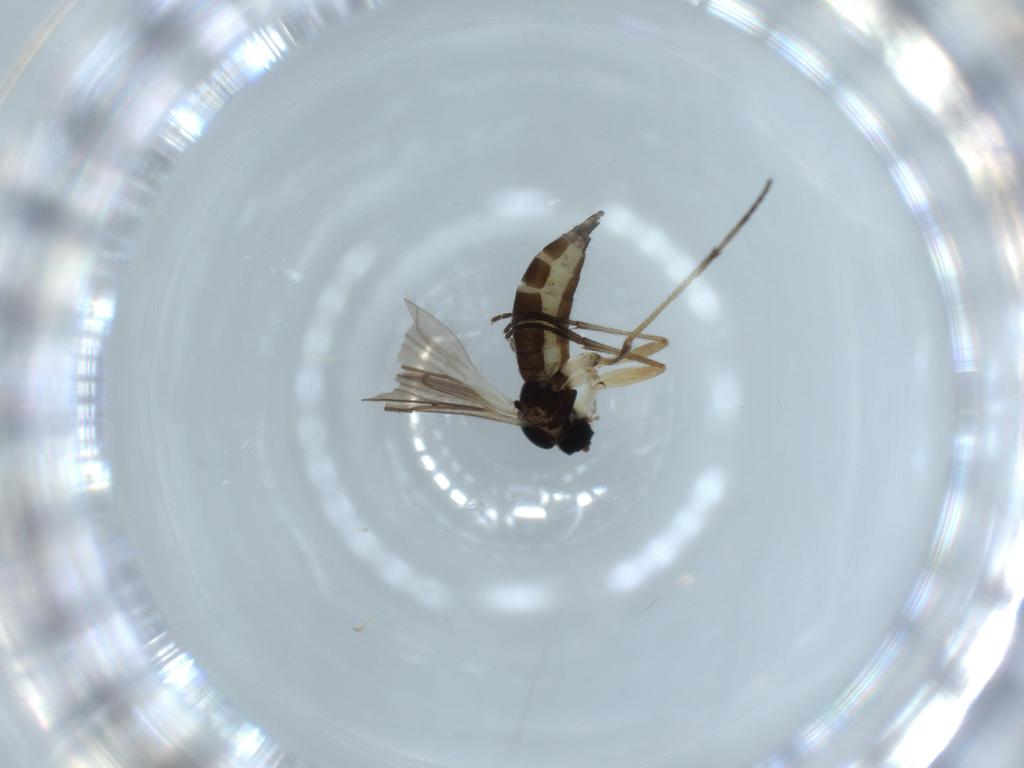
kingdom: Animalia
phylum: Arthropoda
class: Insecta
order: Diptera
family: Sciaridae
